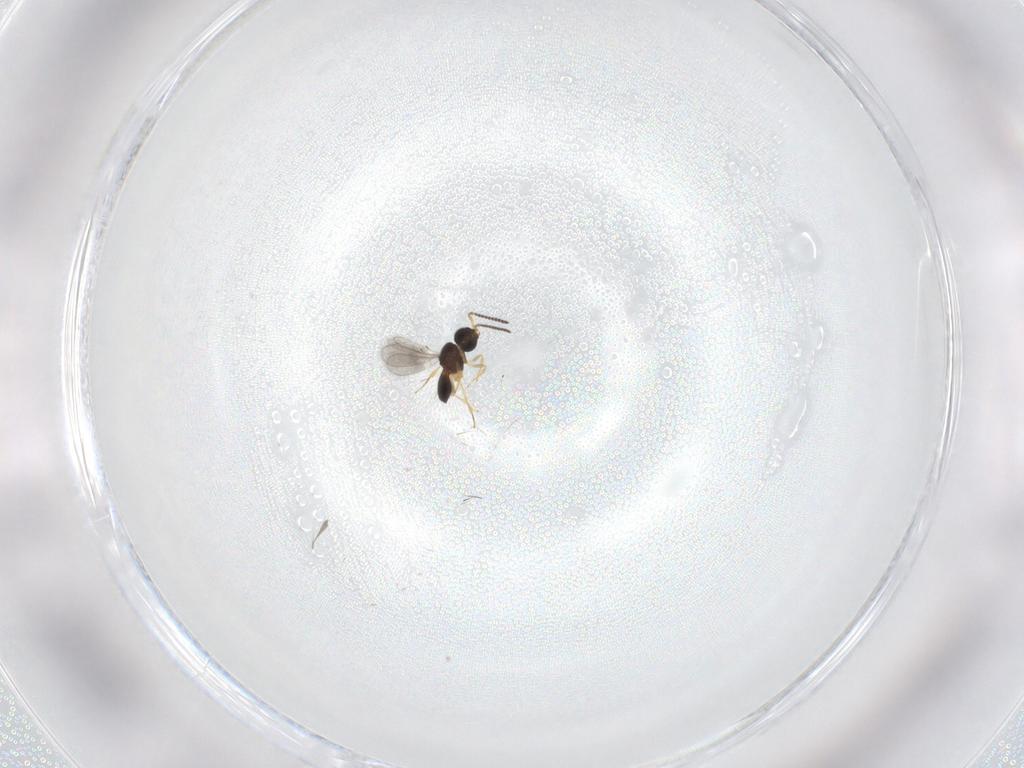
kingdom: Animalia
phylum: Arthropoda
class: Insecta
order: Hymenoptera
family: Scelionidae
